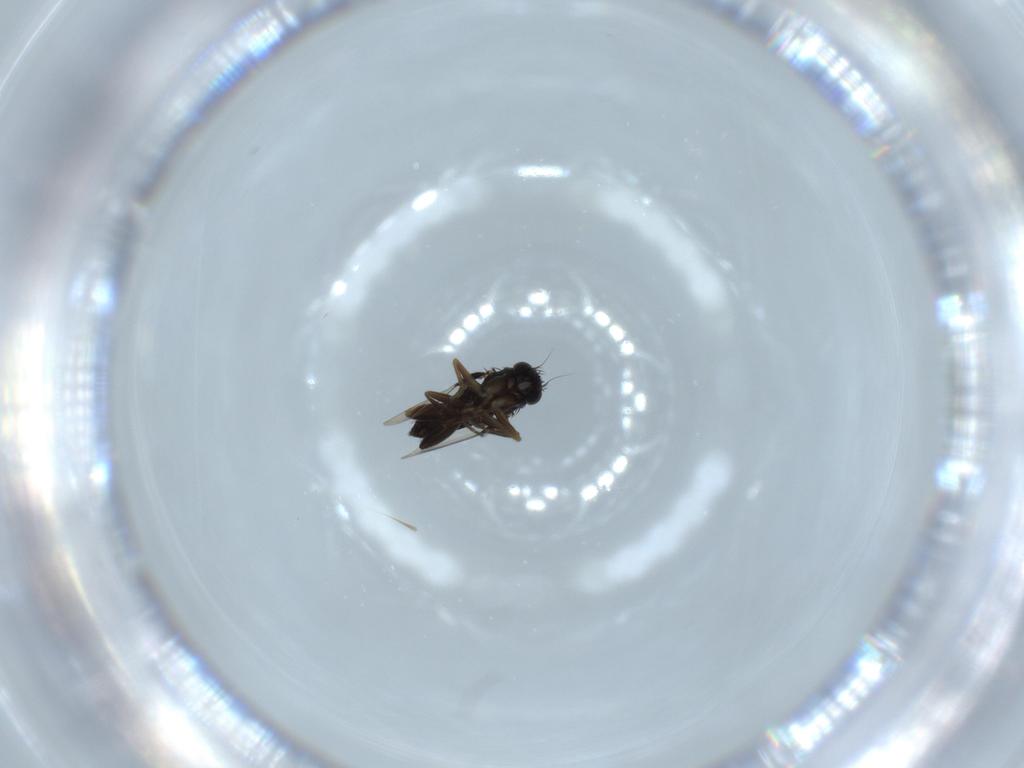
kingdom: Animalia
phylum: Arthropoda
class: Insecta
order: Diptera
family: Phoridae
